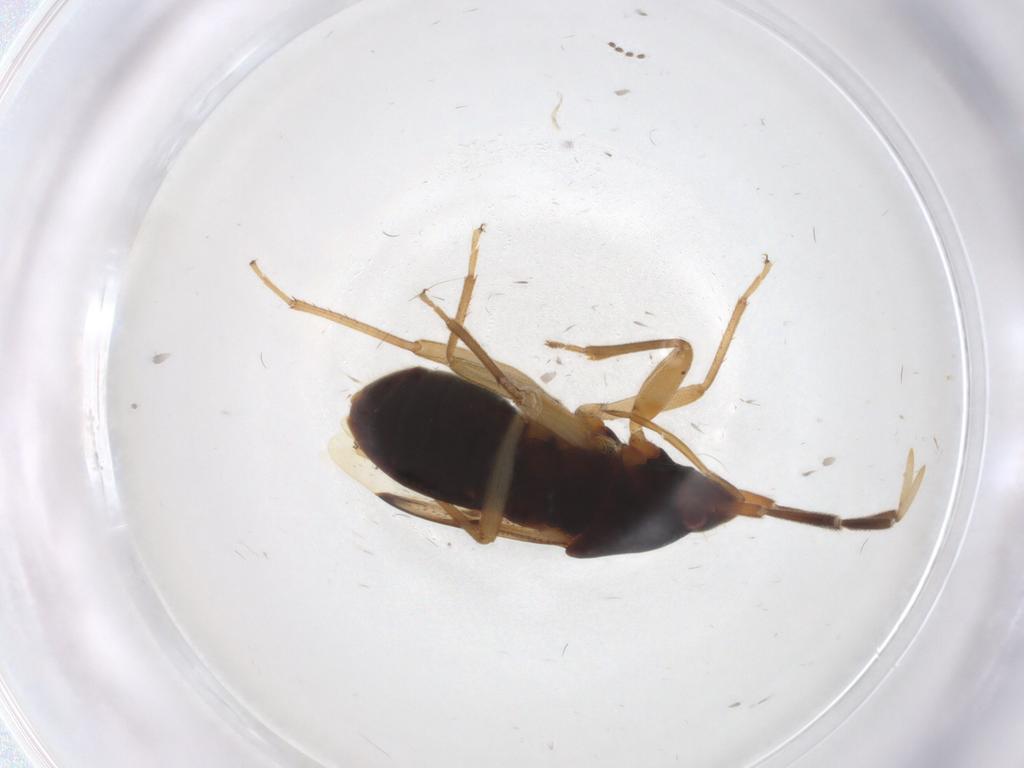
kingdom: Animalia
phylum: Arthropoda
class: Insecta
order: Hemiptera
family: Rhyparochromidae
